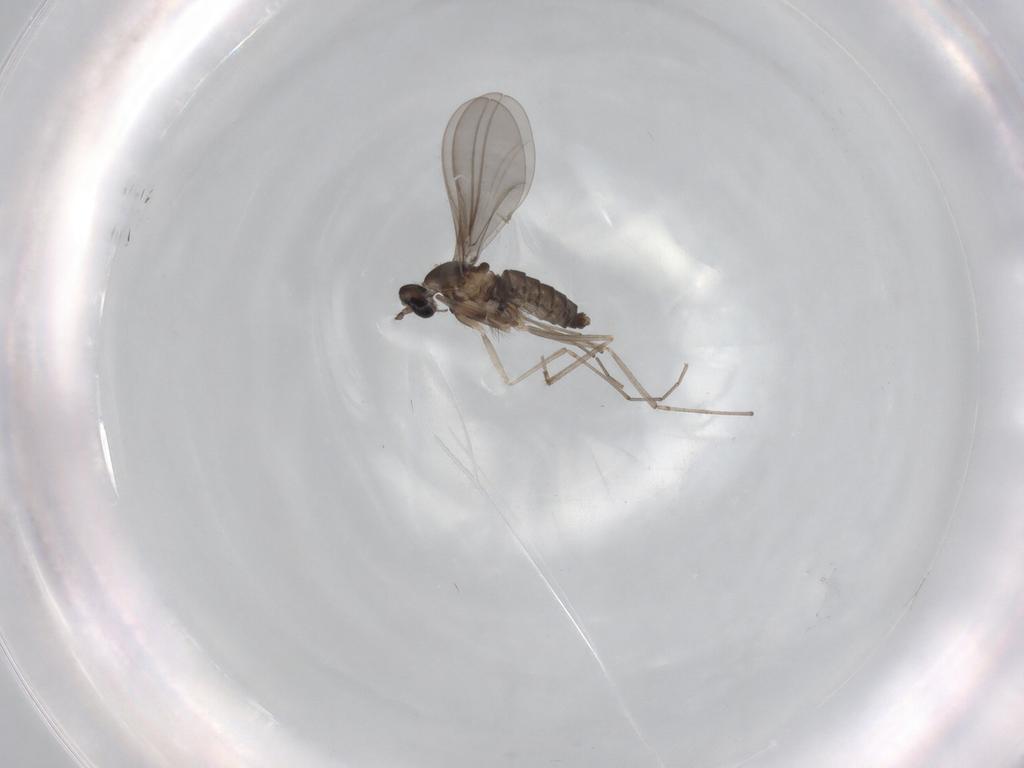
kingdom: Animalia
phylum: Arthropoda
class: Insecta
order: Diptera
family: Cecidomyiidae
